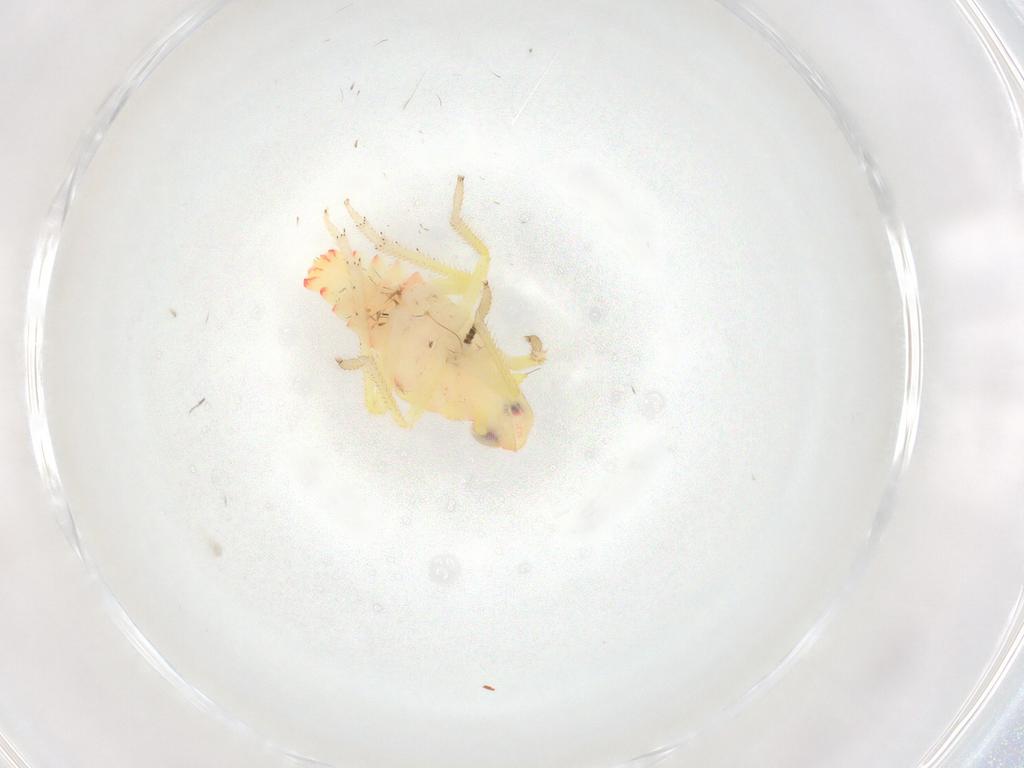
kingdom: Animalia
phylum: Arthropoda
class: Insecta
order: Hemiptera
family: Tropiduchidae
